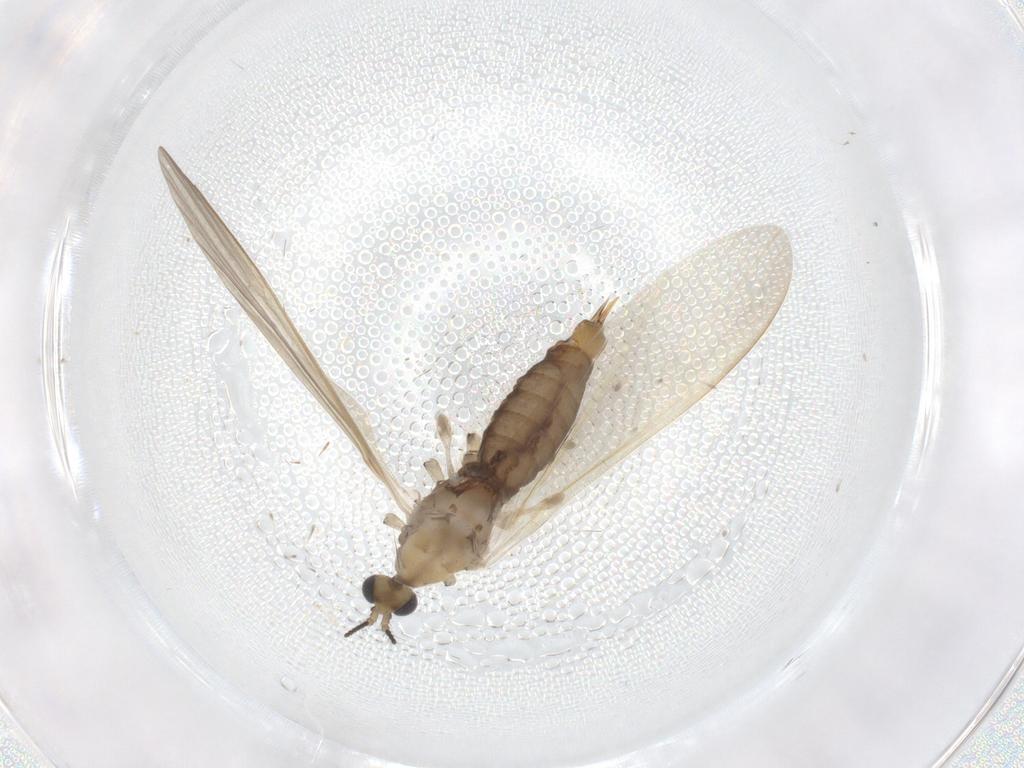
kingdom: Animalia
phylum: Arthropoda
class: Insecta
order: Diptera
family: Limoniidae
